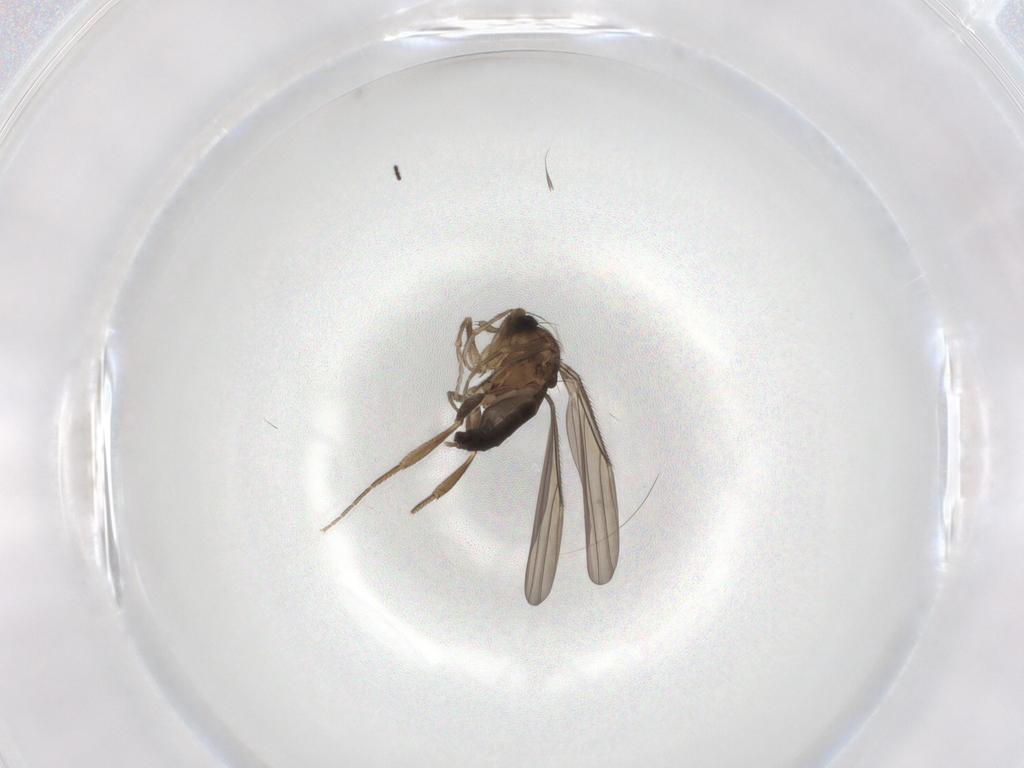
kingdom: Animalia
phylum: Arthropoda
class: Insecta
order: Diptera
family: Sciaridae
